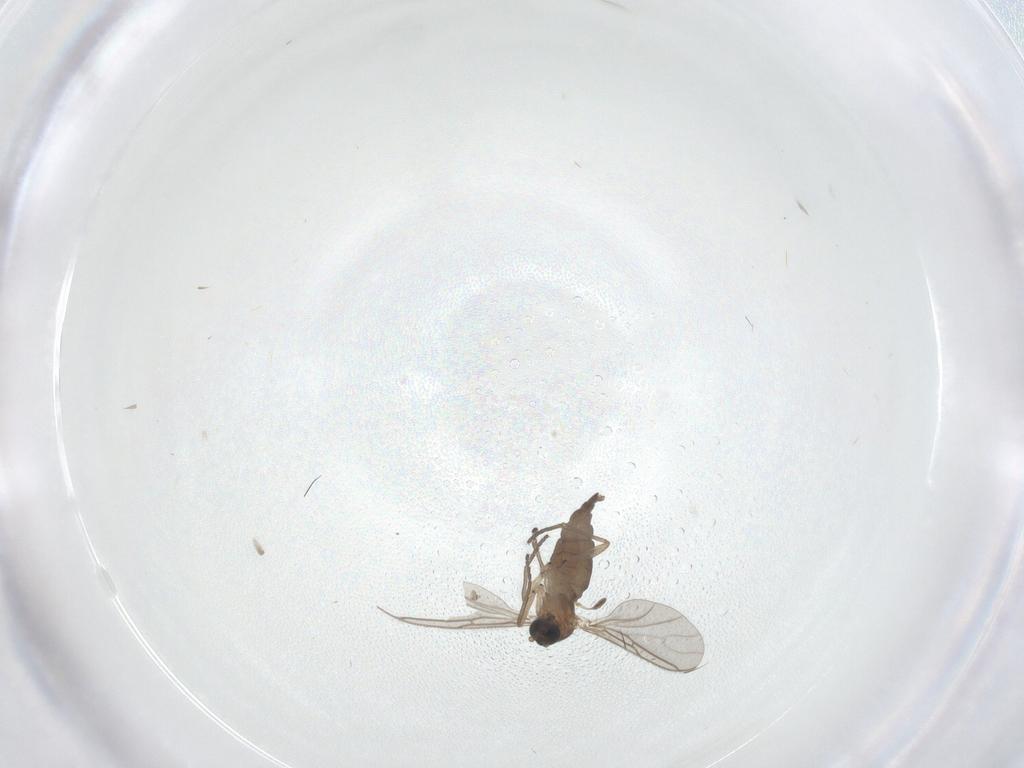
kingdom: Animalia
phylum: Arthropoda
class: Insecta
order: Diptera
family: Sciaridae
